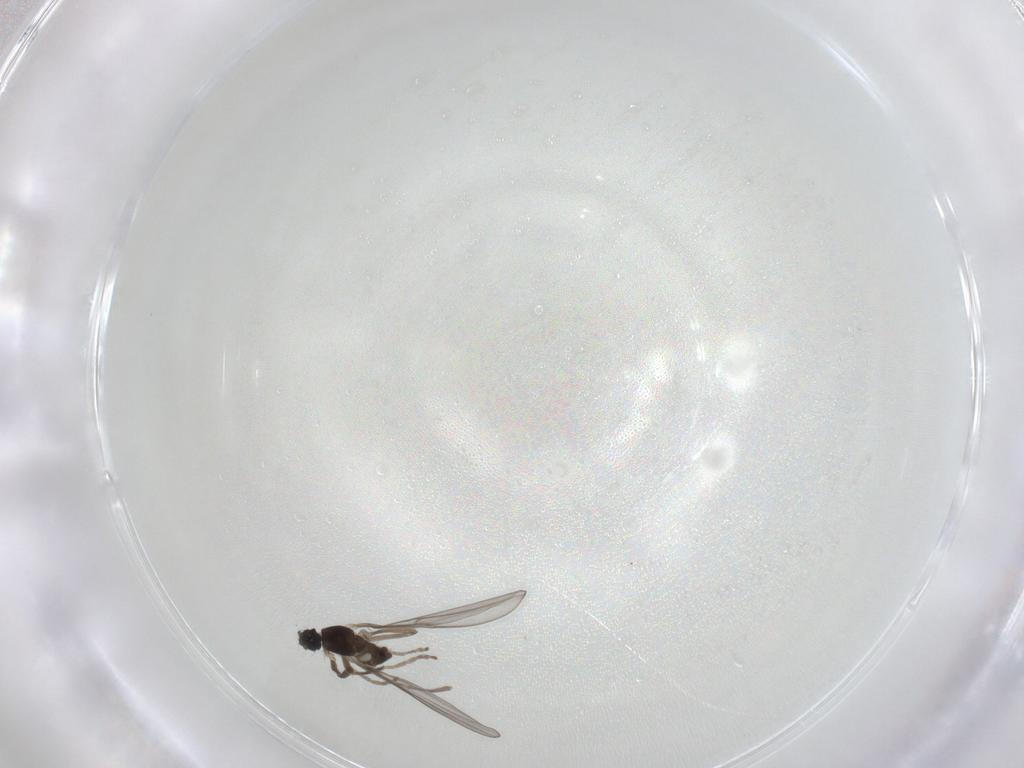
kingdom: Animalia
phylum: Arthropoda
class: Insecta
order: Diptera
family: Cecidomyiidae
